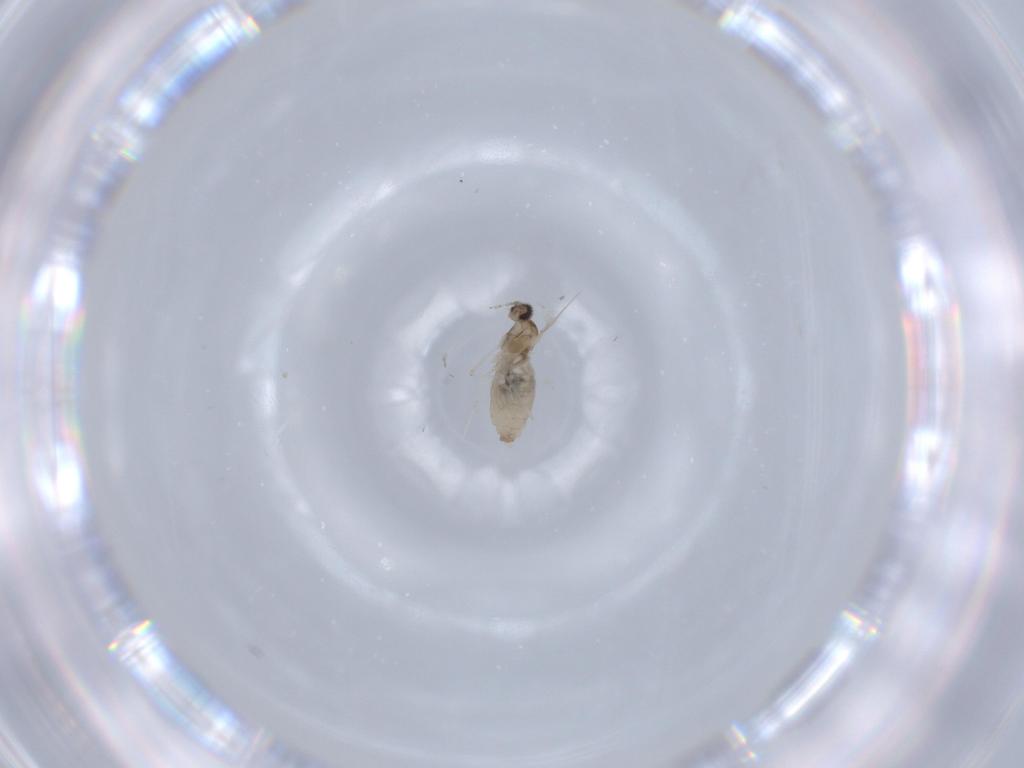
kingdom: Animalia
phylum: Arthropoda
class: Insecta
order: Diptera
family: Cecidomyiidae
